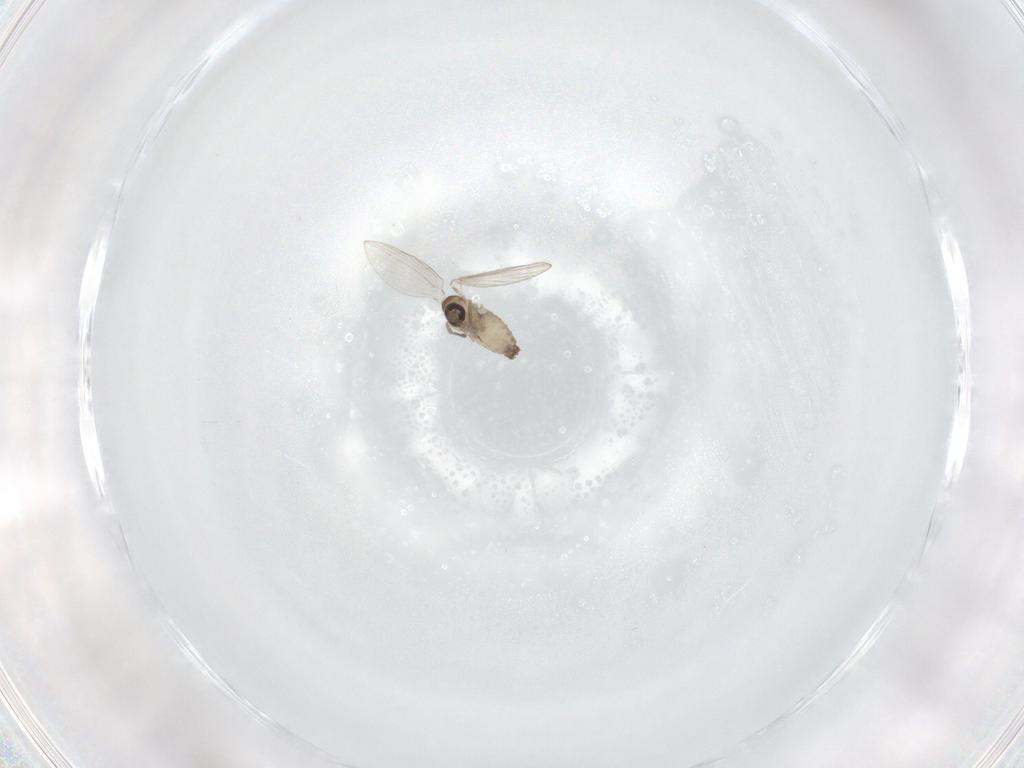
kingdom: Animalia
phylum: Arthropoda
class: Insecta
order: Diptera
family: Psychodidae
